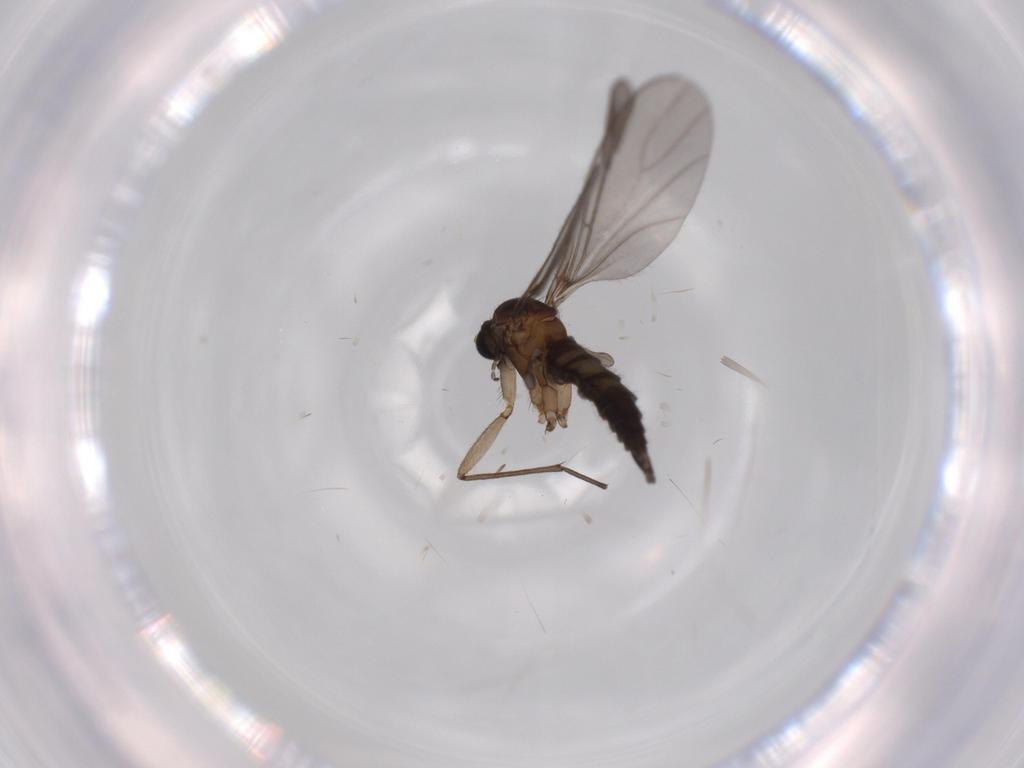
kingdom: Animalia
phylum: Arthropoda
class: Insecta
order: Diptera
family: Sciaridae
